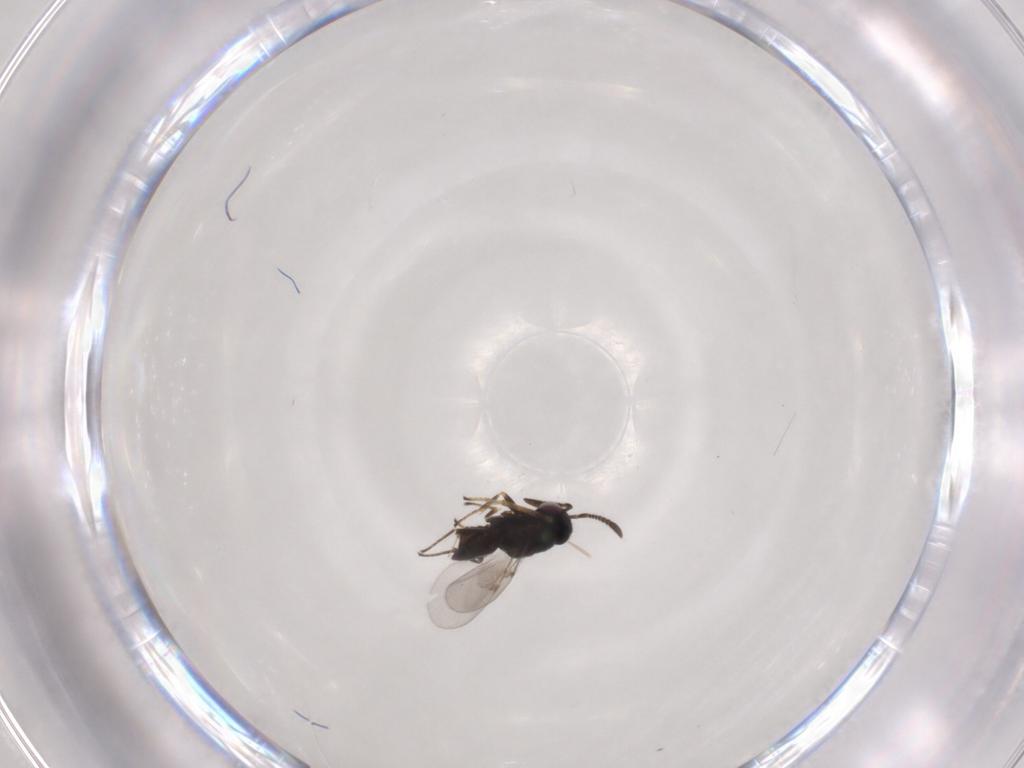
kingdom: Animalia
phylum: Arthropoda
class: Insecta
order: Hymenoptera
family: Encyrtidae
